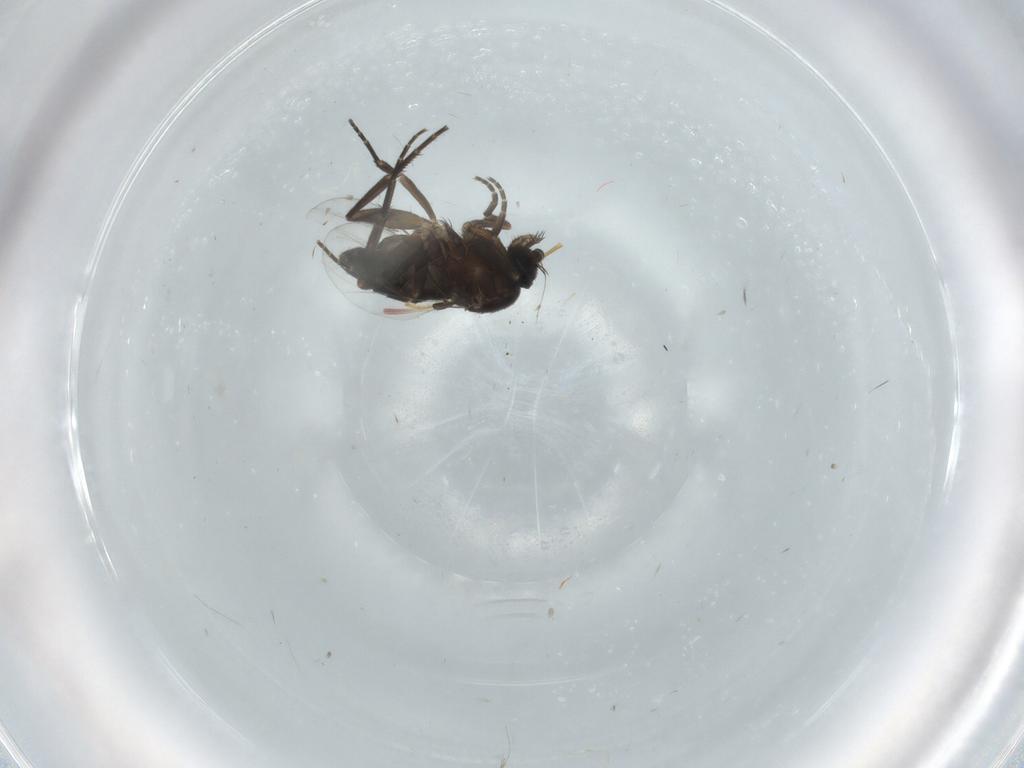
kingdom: Animalia
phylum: Arthropoda
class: Insecta
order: Diptera
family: Phoridae
